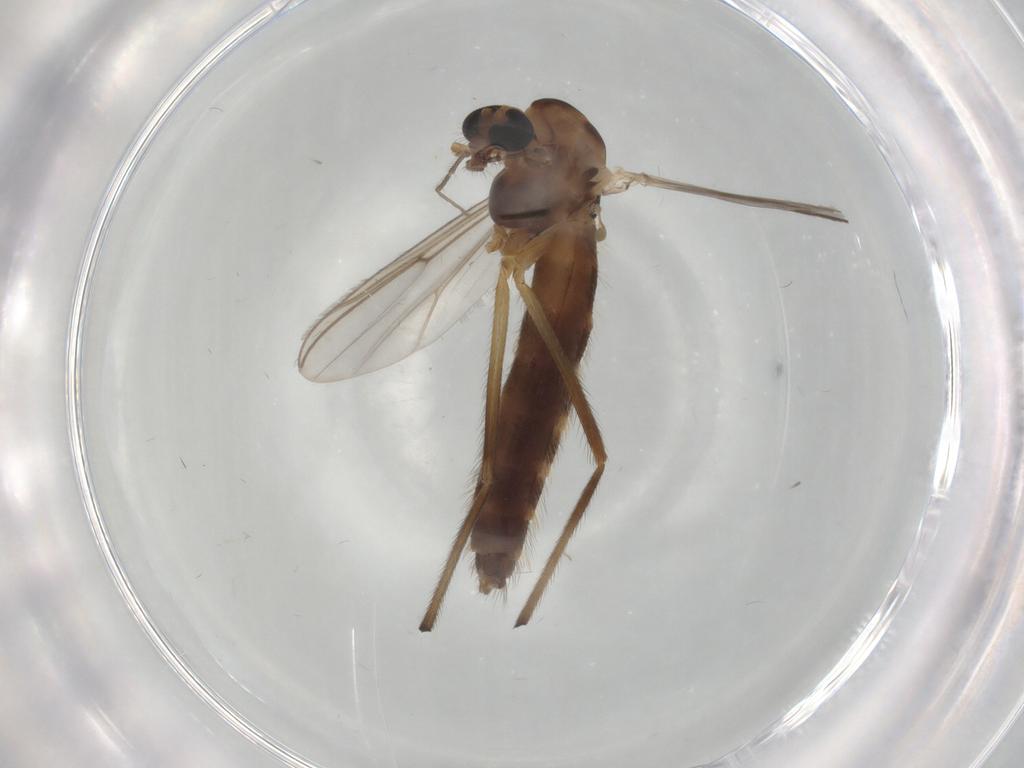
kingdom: Animalia
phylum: Arthropoda
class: Insecta
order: Diptera
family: Chironomidae
